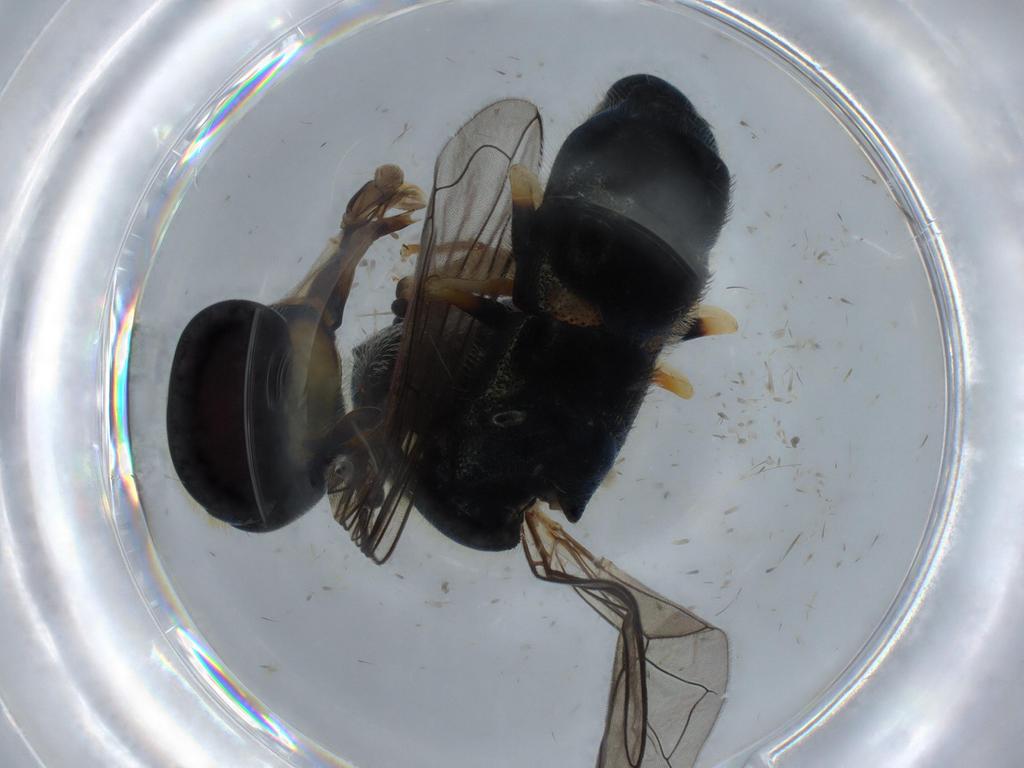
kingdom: Animalia
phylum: Arthropoda
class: Insecta
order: Diptera
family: Syrphidae
